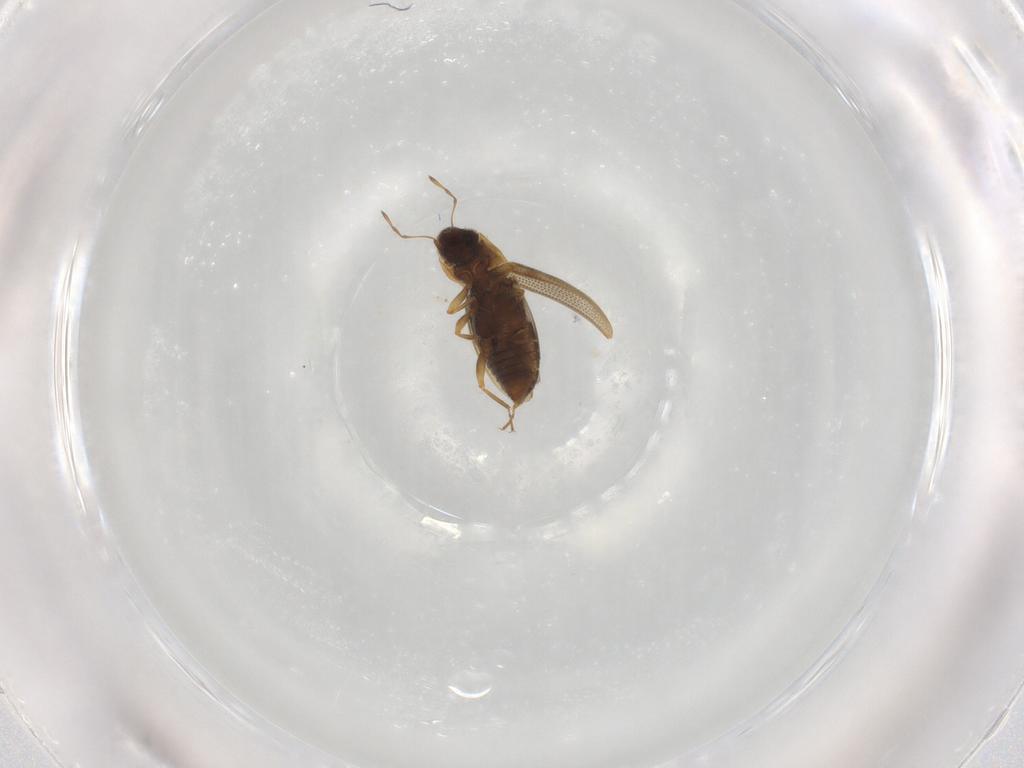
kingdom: Animalia
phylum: Arthropoda
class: Insecta
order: Coleoptera
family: Hydraenidae
